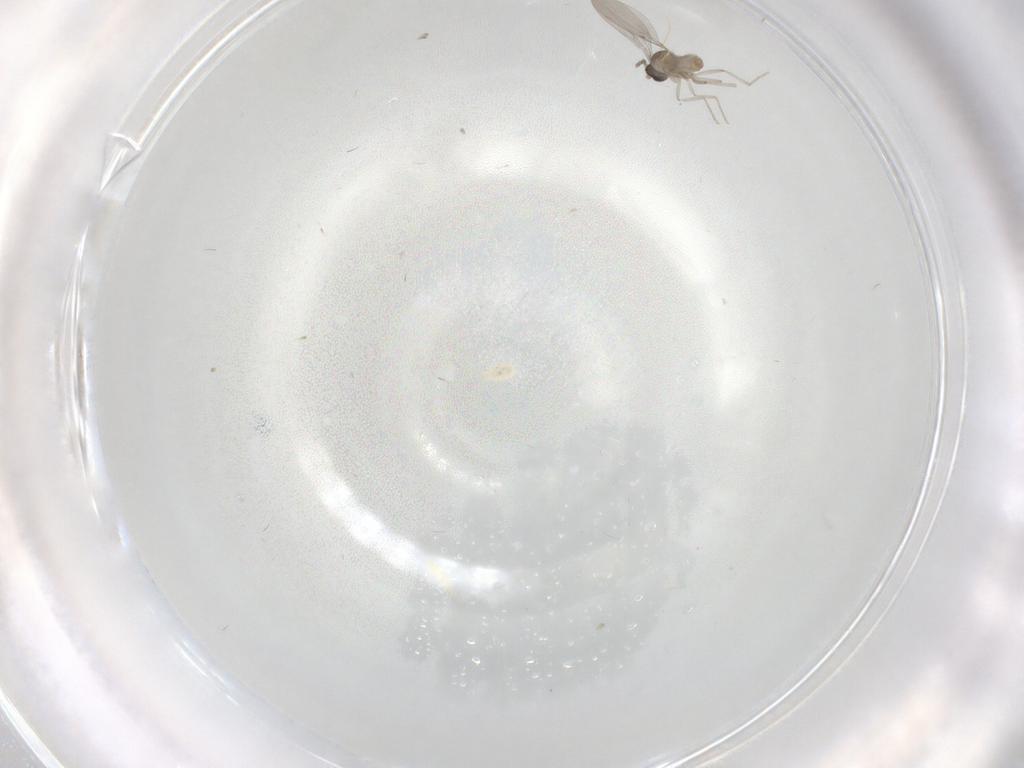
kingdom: Animalia
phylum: Arthropoda
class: Insecta
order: Diptera
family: Cecidomyiidae
